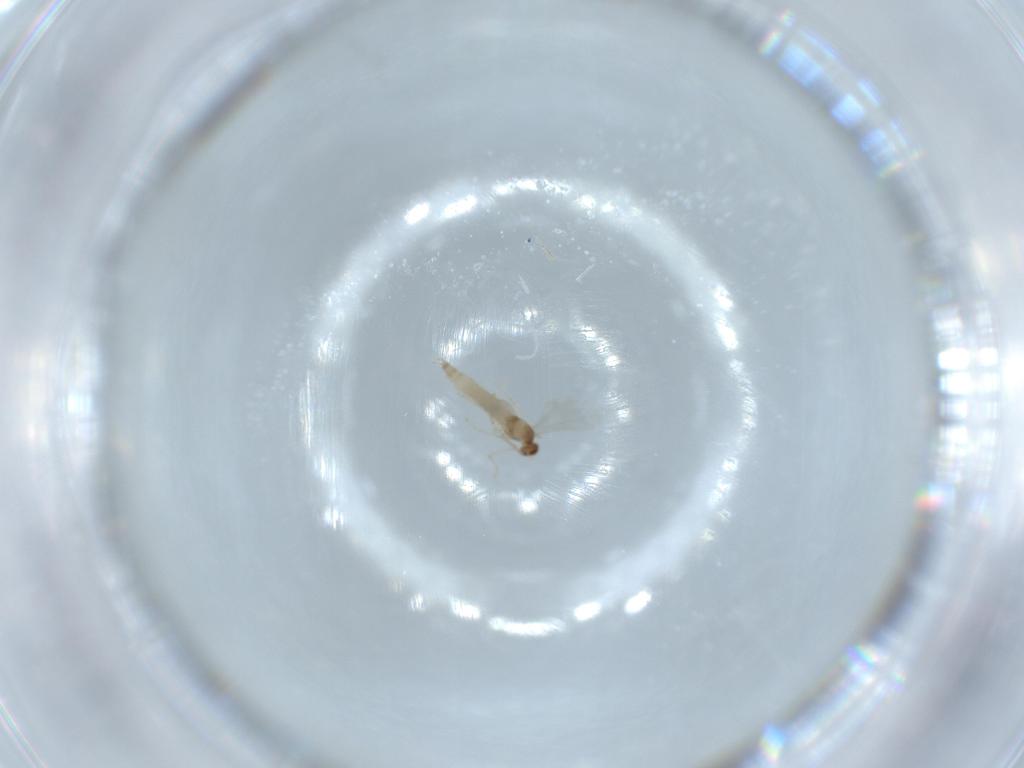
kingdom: Animalia
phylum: Arthropoda
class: Insecta
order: Diptera
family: Cecidomyiidae
